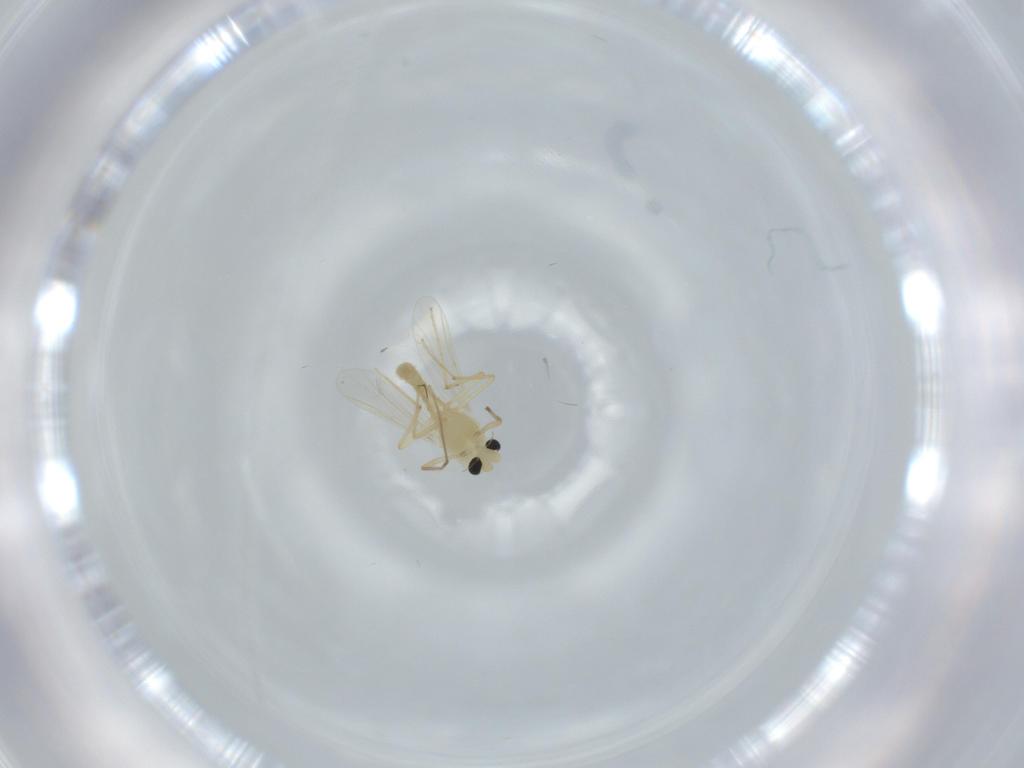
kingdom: Animalia
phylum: Arthropoda
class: Insecta
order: Diptera
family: Chironomidae
